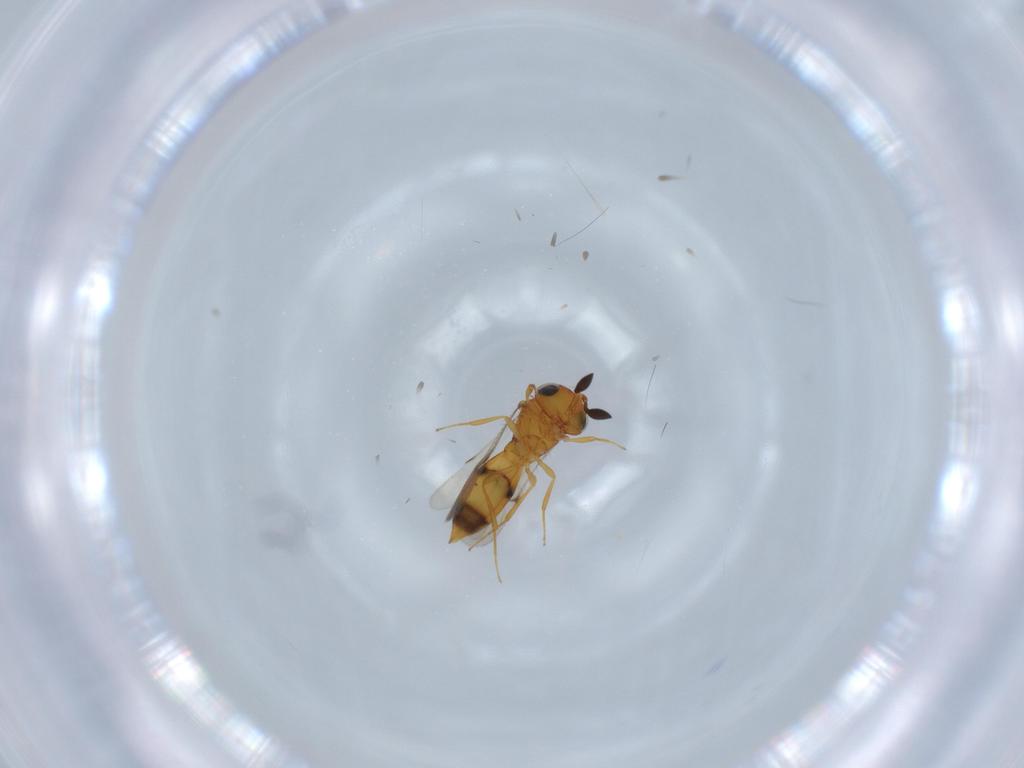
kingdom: Animalia
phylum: Arthropoda
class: Insecta
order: Hymenoptera
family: Scelionidae
